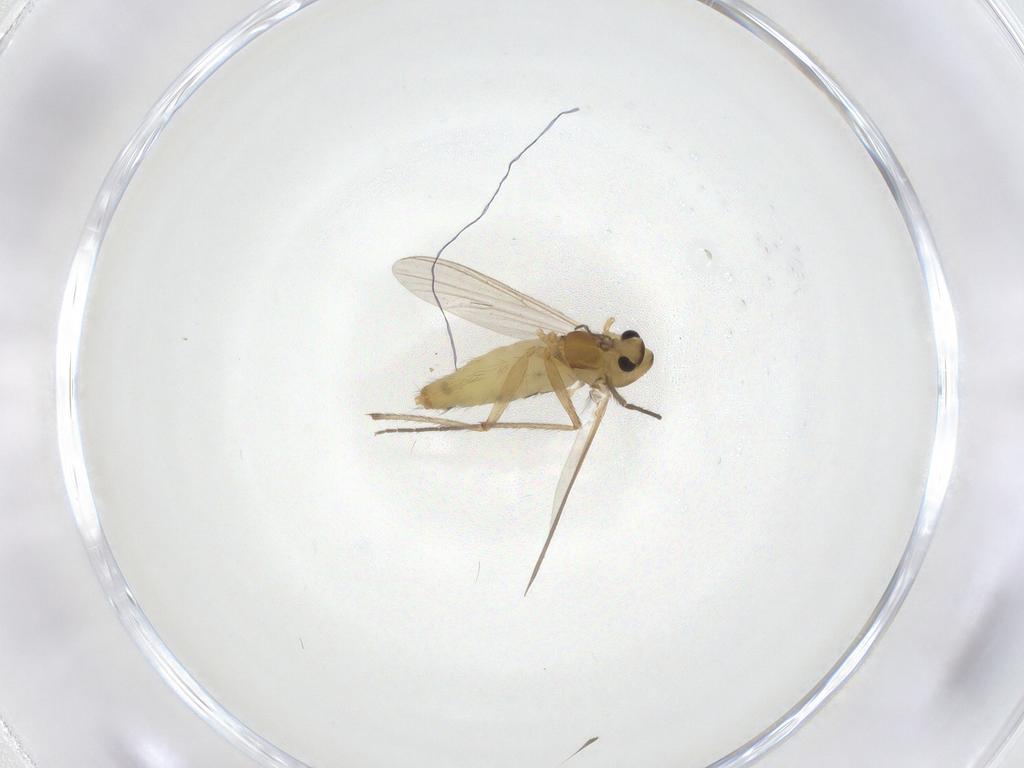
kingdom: Animalia
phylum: Arthropoda
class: Insecta
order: Diptera
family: Chironomidae
